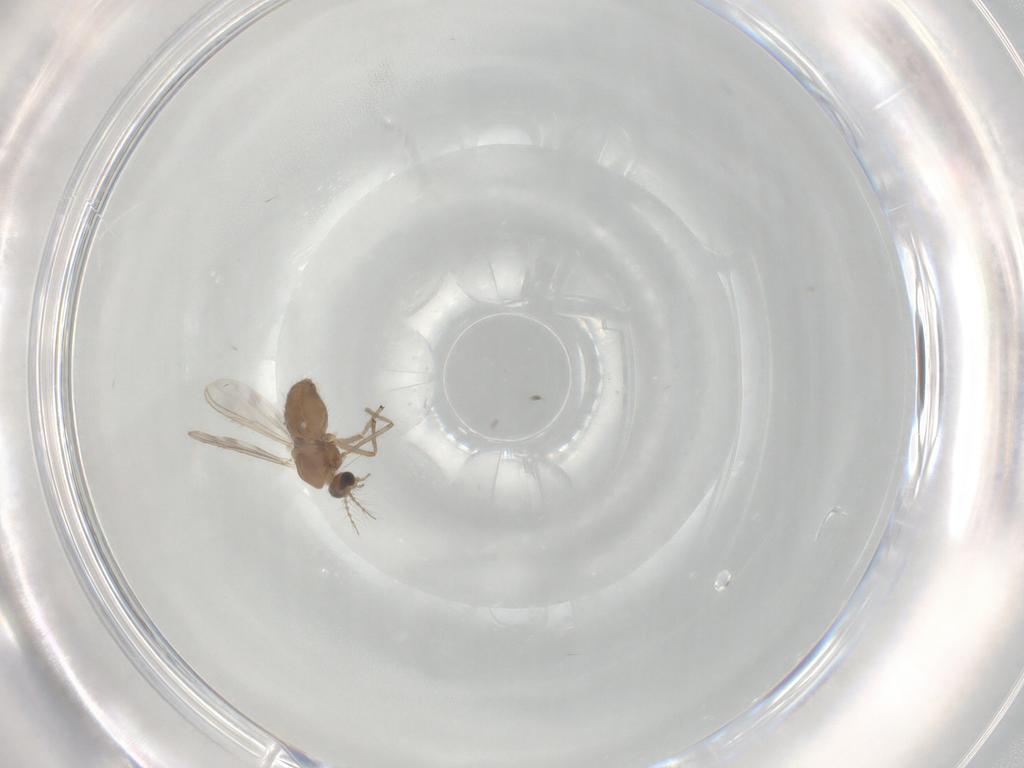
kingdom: Animalia
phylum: Arthropoda
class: Insecta
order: Diptera
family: Chironomidae
